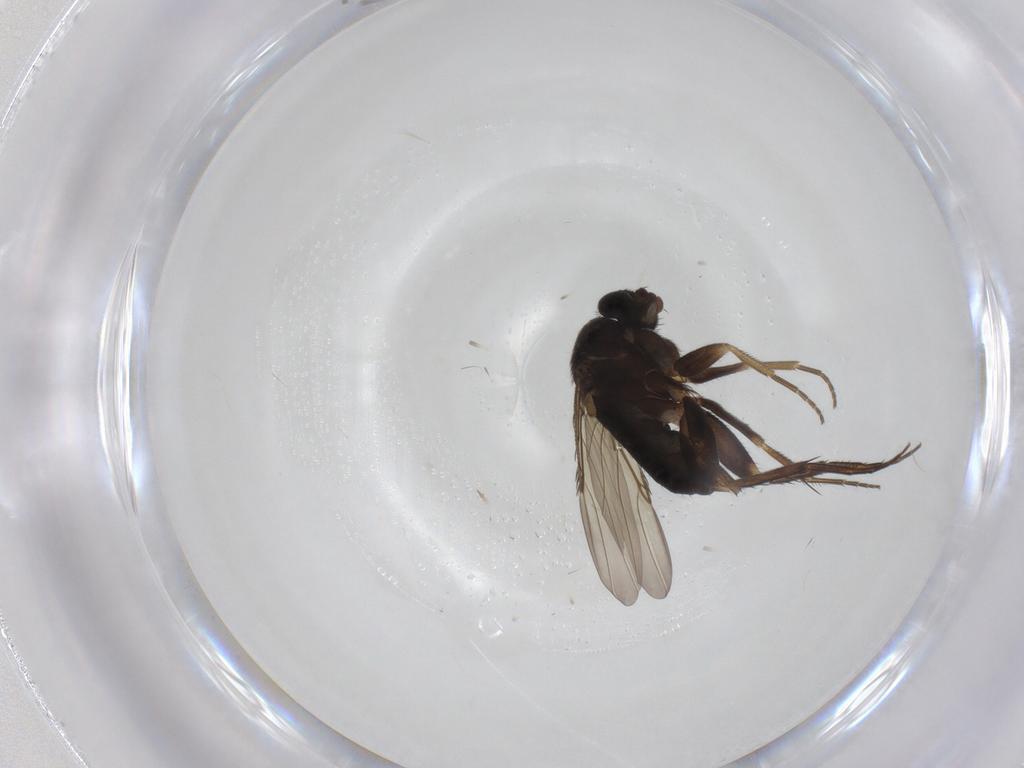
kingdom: Animalia
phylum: Arthropoda
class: Insecta
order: Diptera
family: Phoridae
